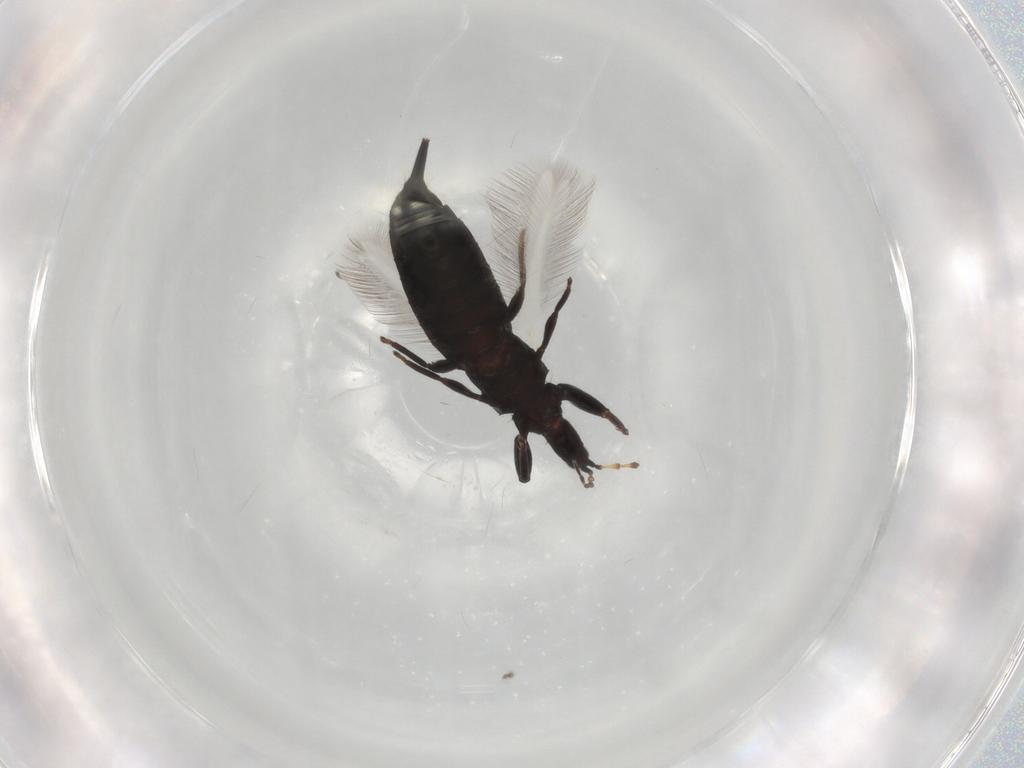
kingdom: Animalia
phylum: Arthropoda
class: Insecta
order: Thysanoptera
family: Phlaeothripidae
